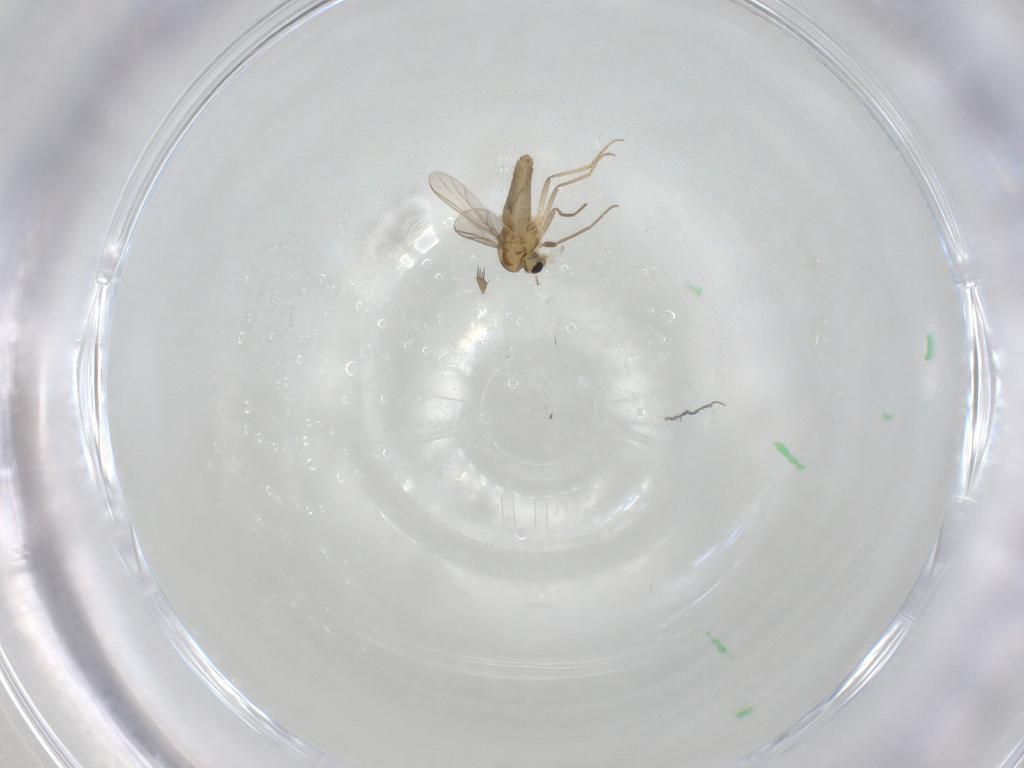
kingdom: Animalia
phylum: Arthropoda
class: Insecta
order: Diptera
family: Chironomidae
